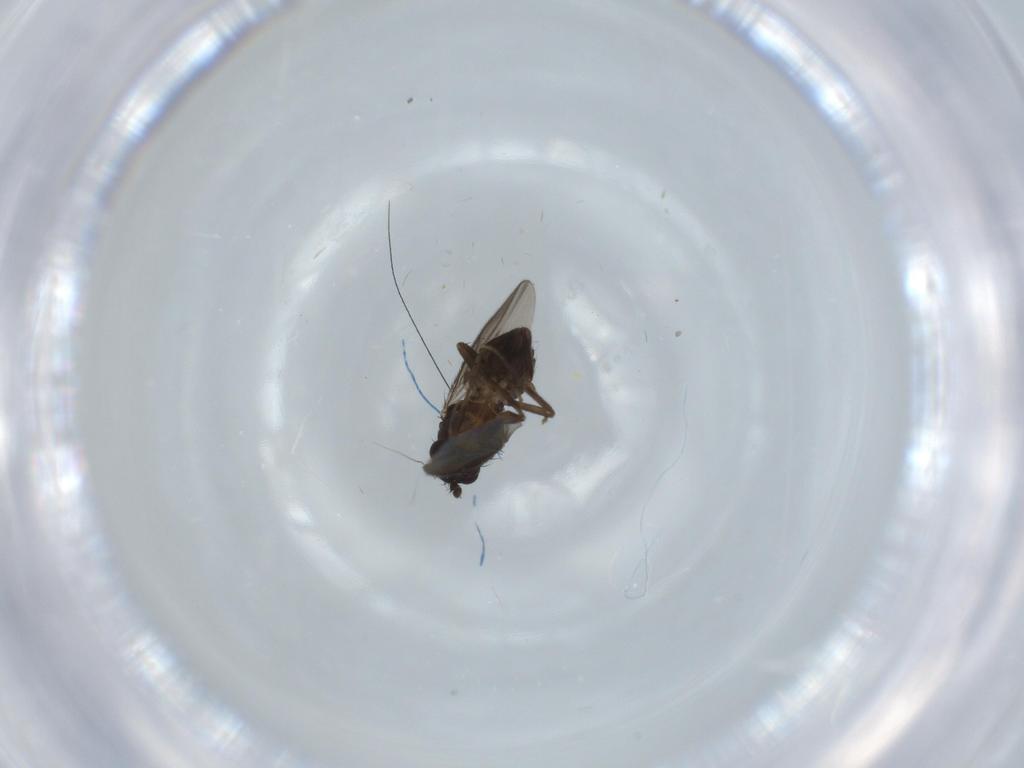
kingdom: Animalia
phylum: Arthropoda
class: Insecta
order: Diptera
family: Sphaeroceridae
